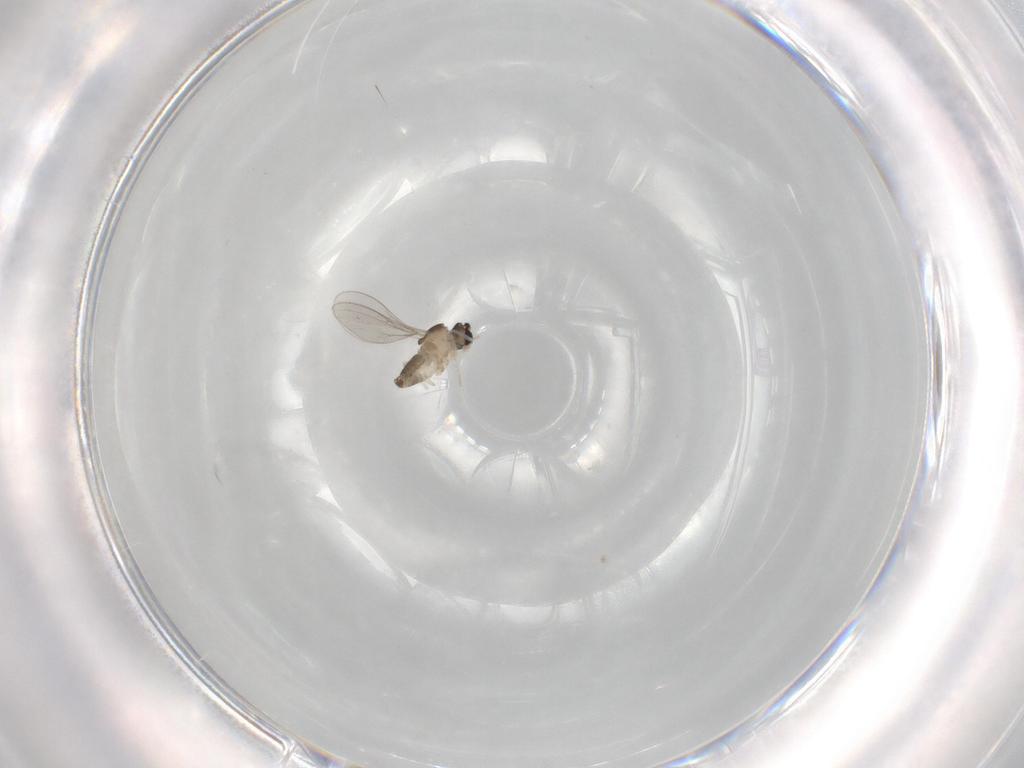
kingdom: Animalia
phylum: Arthropoda
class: Insecta
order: Diptera
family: Cecidomyiidae
